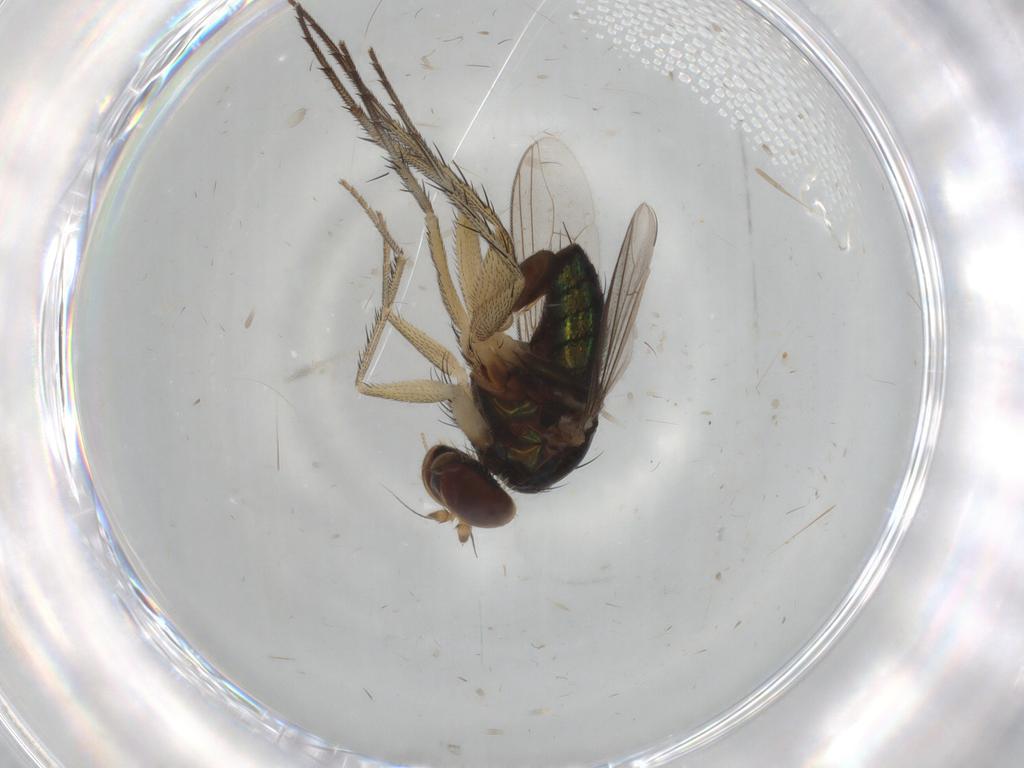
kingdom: Animalia
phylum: Arthropoda
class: Insecta
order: Diptera
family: Dolichopodidae
